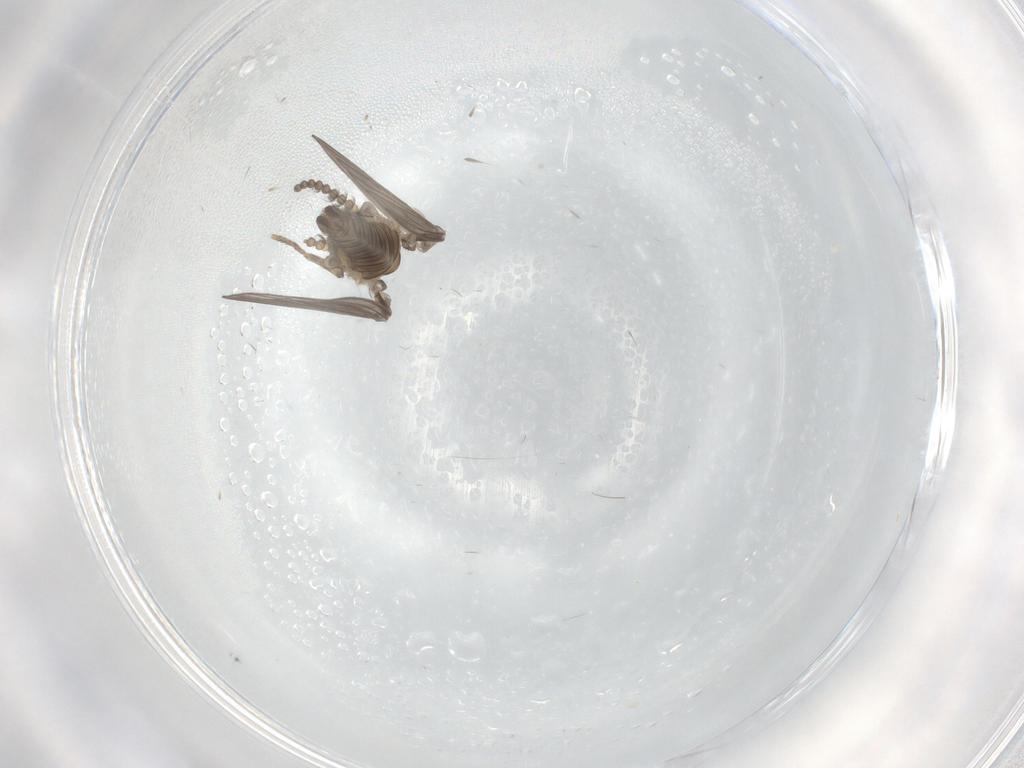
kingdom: Animalia
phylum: Arthropoda
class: Insecta
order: Diptera
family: Psychodidae
